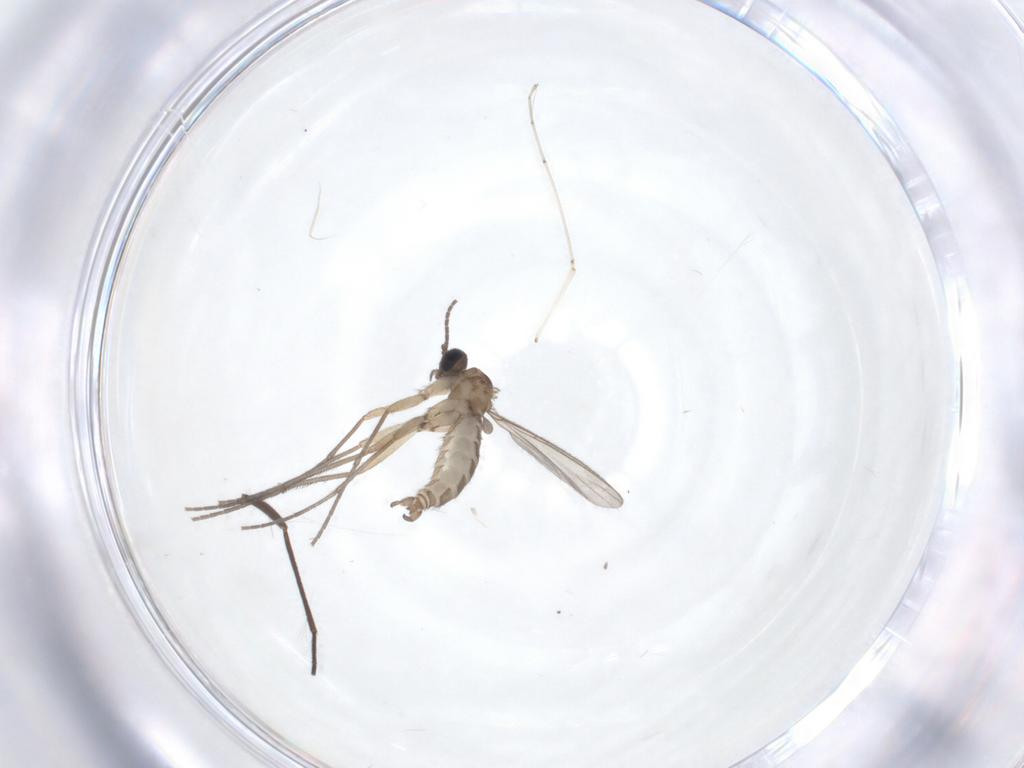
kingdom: Animalia
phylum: Arthropoda
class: Insecta
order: Diptera
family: Sciaridae
